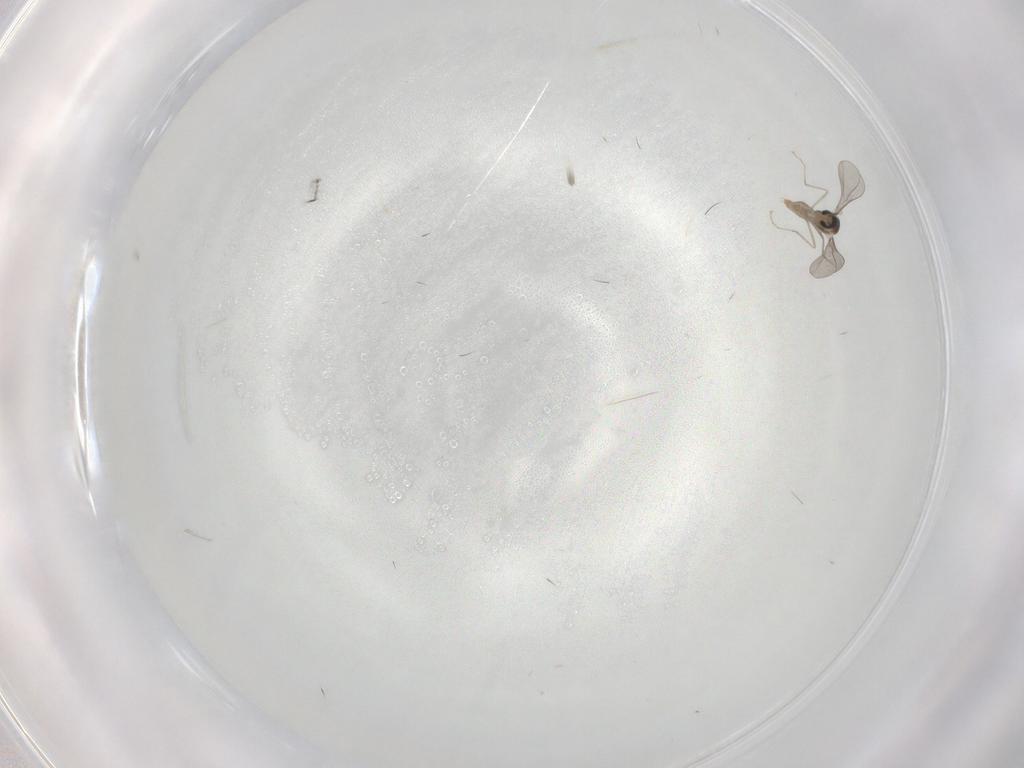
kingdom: Animalia
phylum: Arthropoda
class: Insecta
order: Diptera
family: Chironomidae
